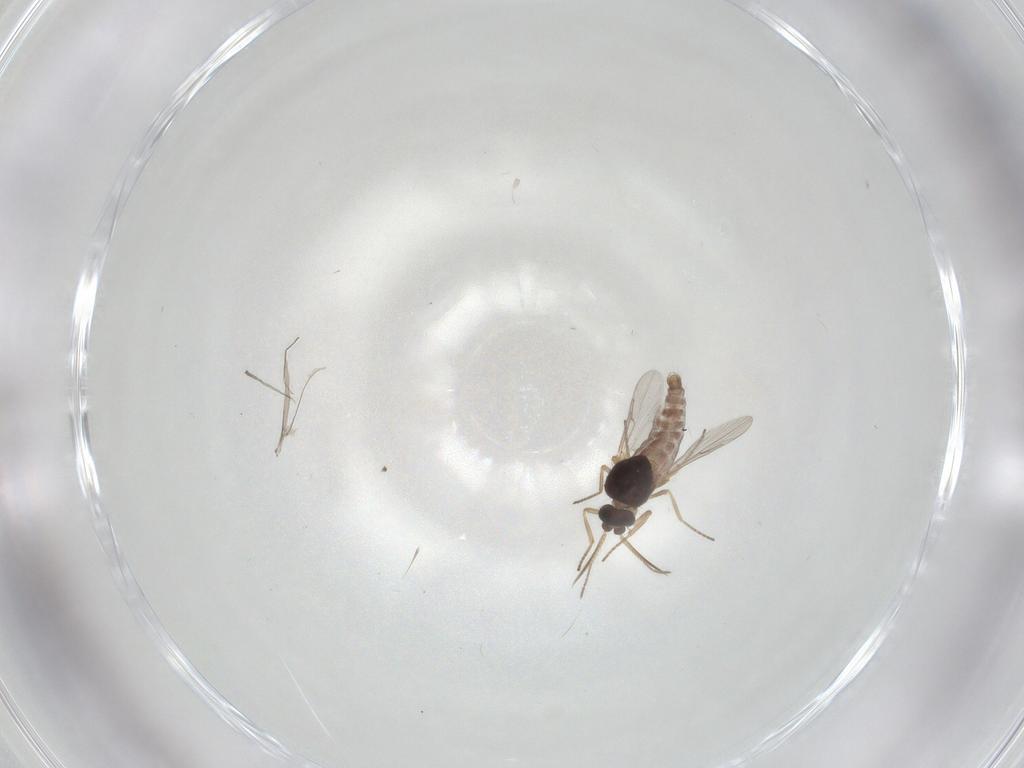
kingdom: Animalia
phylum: Arthropoda
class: Insecta
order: Diptera
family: Ceratopogonidae
